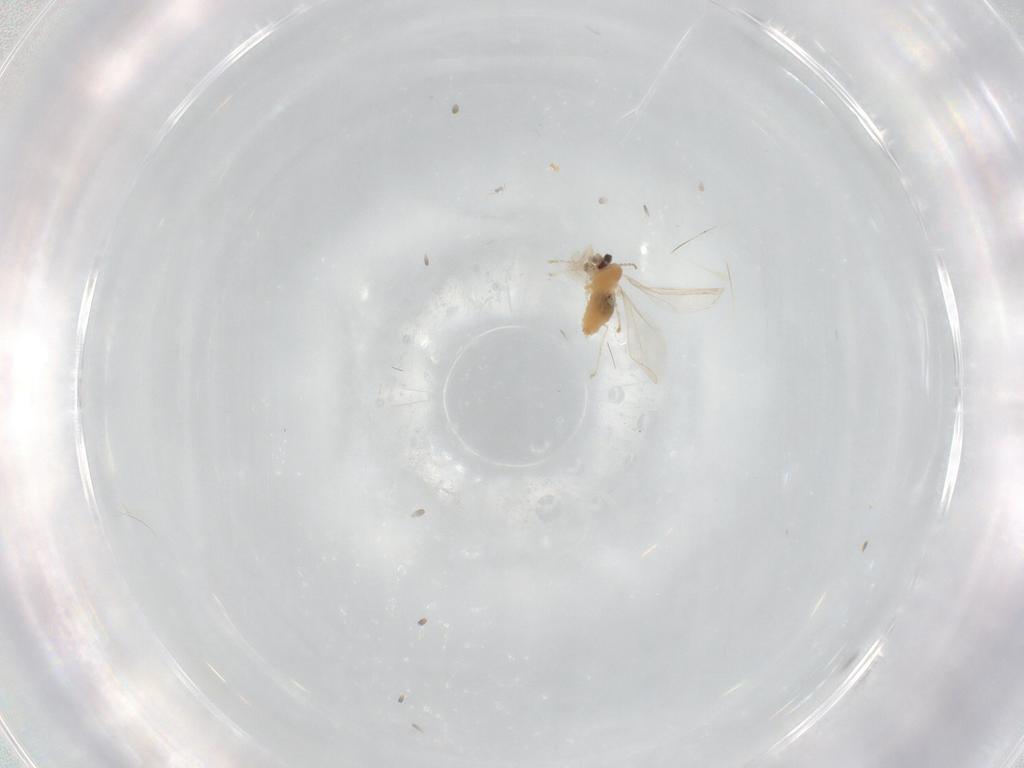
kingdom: Animalia
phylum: Arthropoda
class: Insecta
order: Diptera
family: Cecidomyiidae
